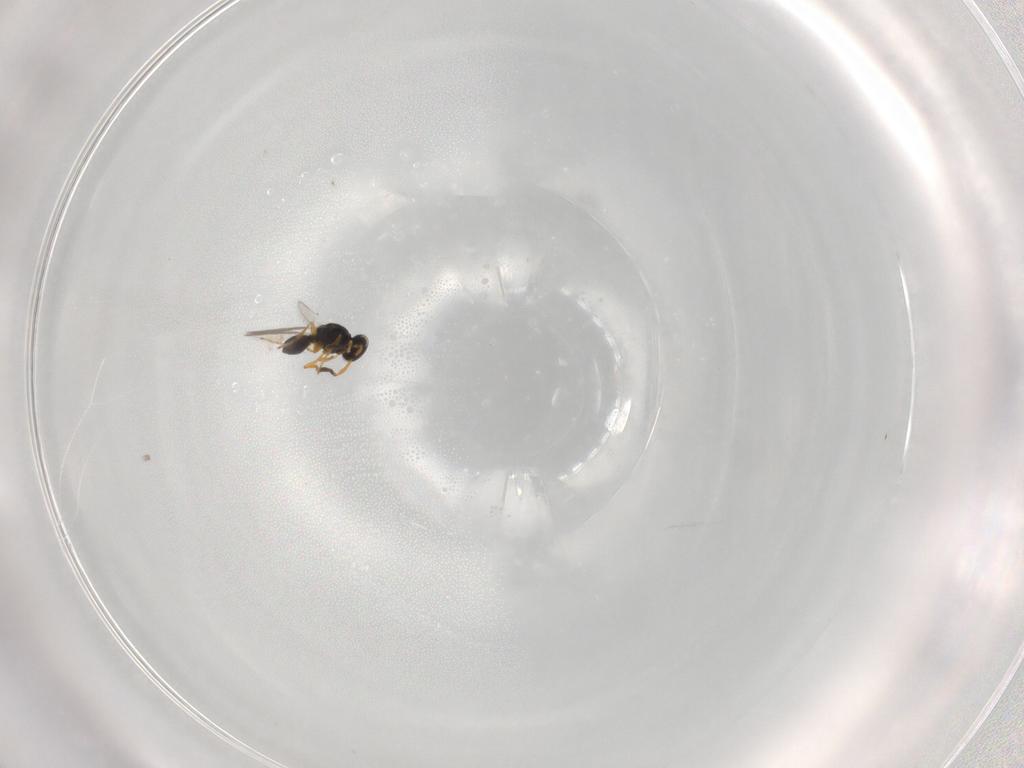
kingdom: Animalia
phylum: Arthropoda
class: Insecta
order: Hymenoptera
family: Platygastridae
